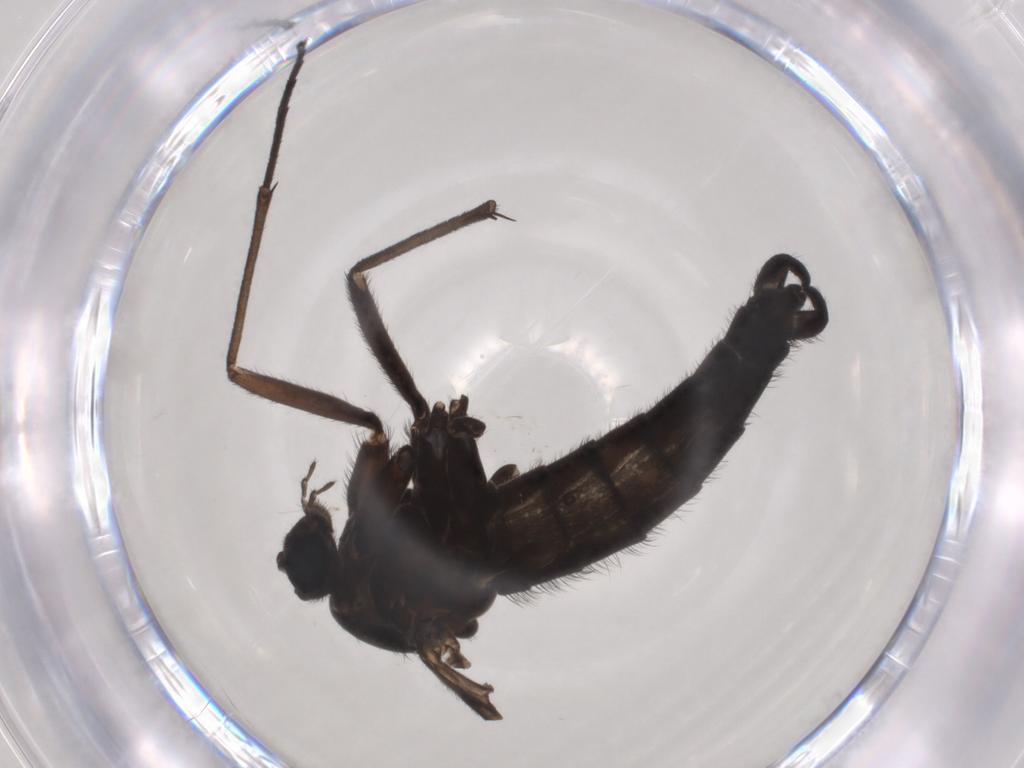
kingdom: Animalia
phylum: Arthropoda
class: Insecta
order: Diptera
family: Sciaridae
